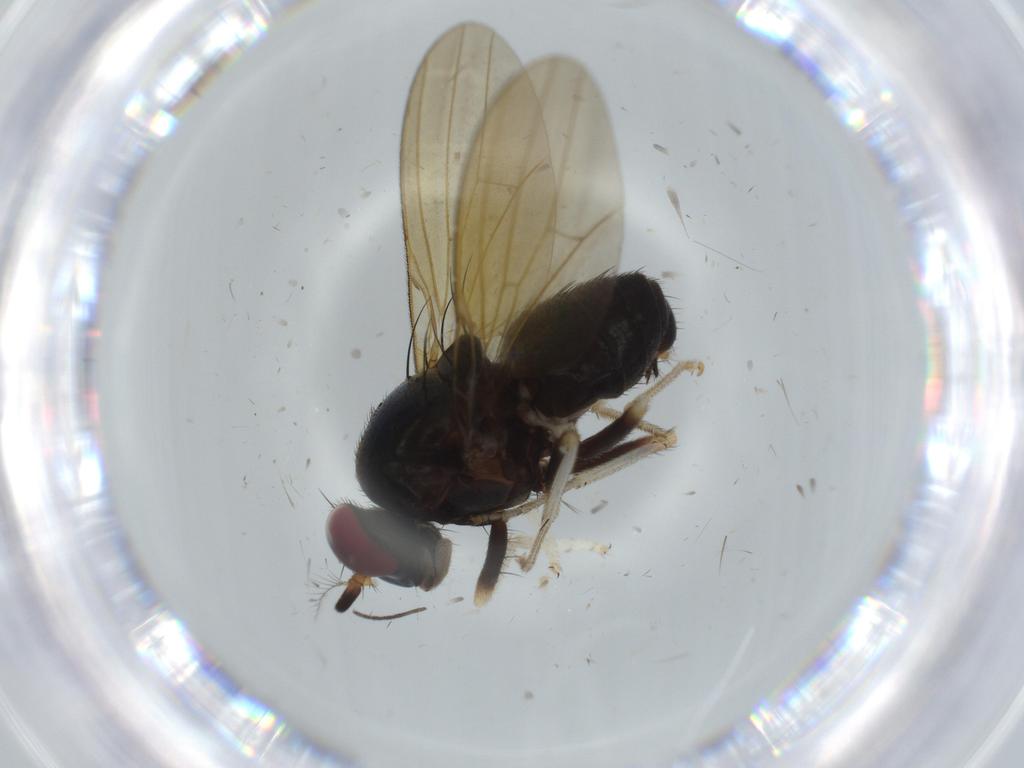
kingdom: Animalia
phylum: Arthropoda
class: Insecta
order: Diptera
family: Lauxaniidae
